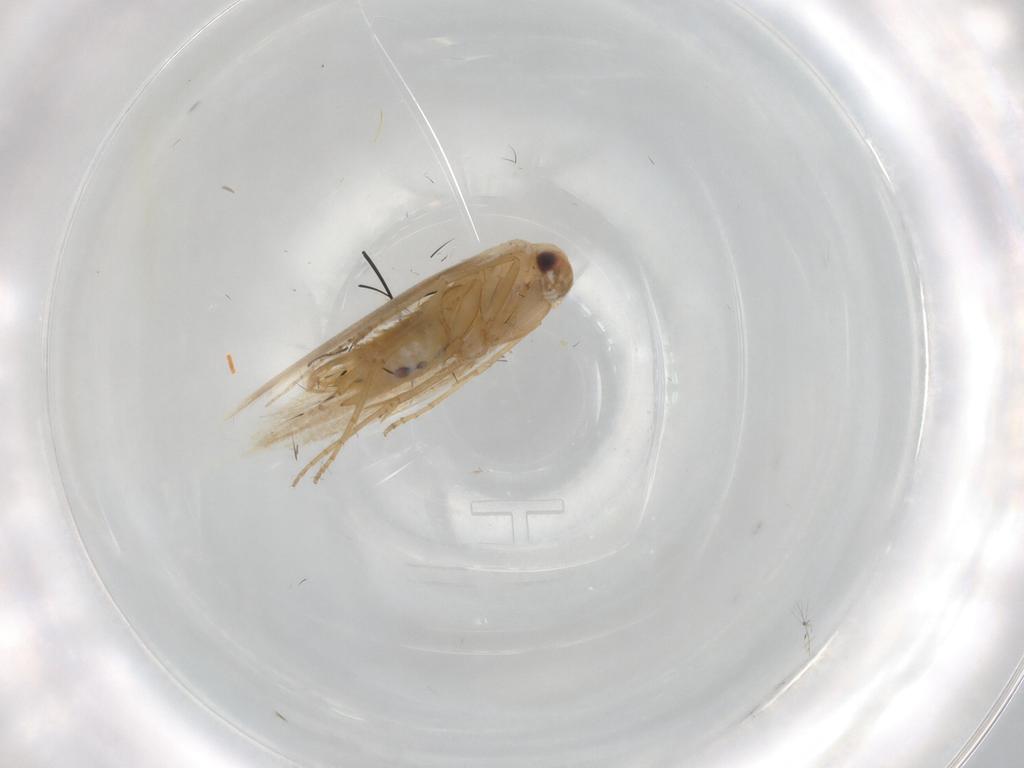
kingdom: Animalia
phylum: Arthropoda
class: Insecta
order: Lepidoptera
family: Bucculatricidae
